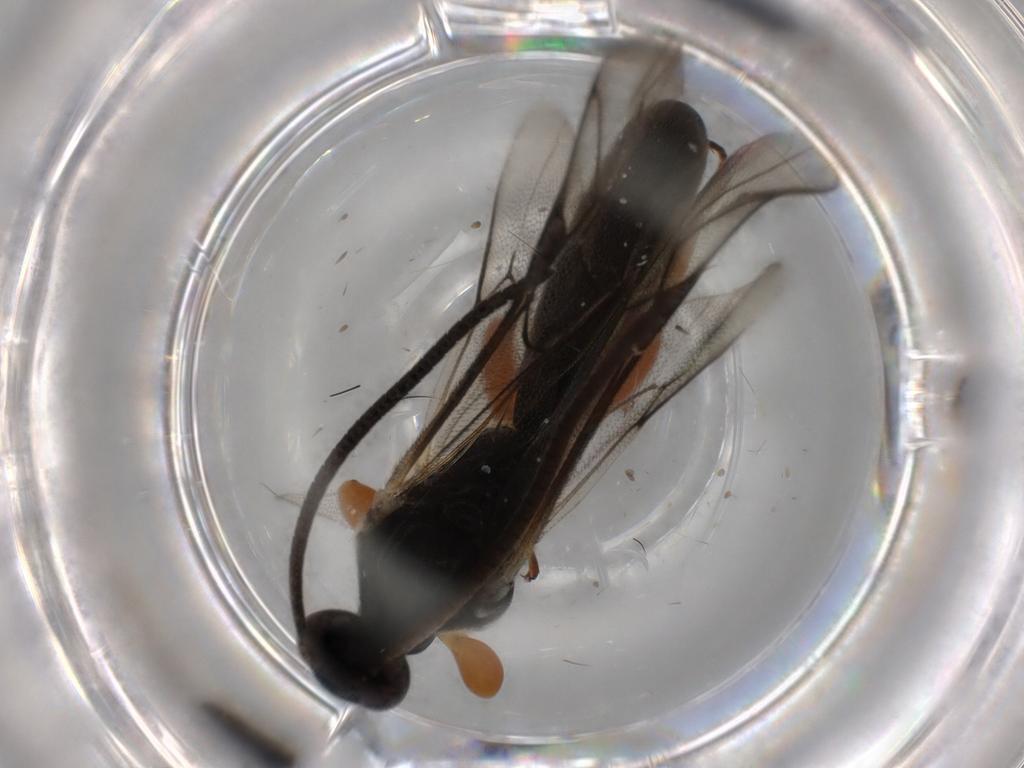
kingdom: Animalia
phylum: Arthropoda
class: Insecta
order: Hymenoptera
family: Ichneumonidae
